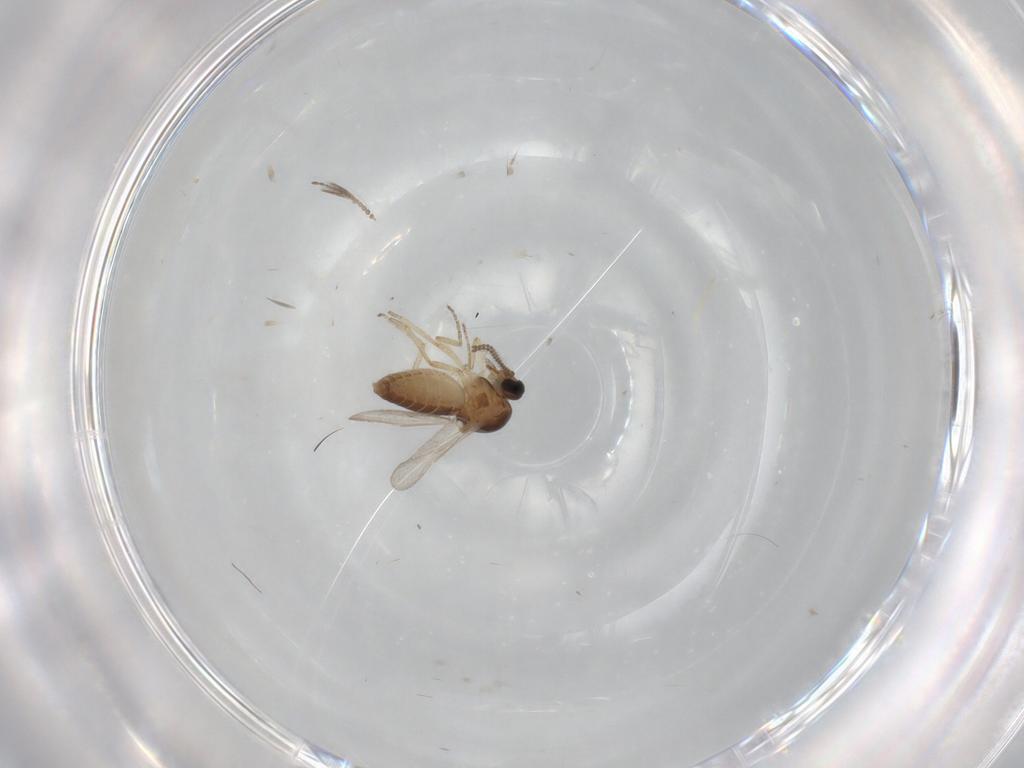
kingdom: Animalia
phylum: Arthropoda
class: Insecta
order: Diptera
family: Ceratopogonidae
